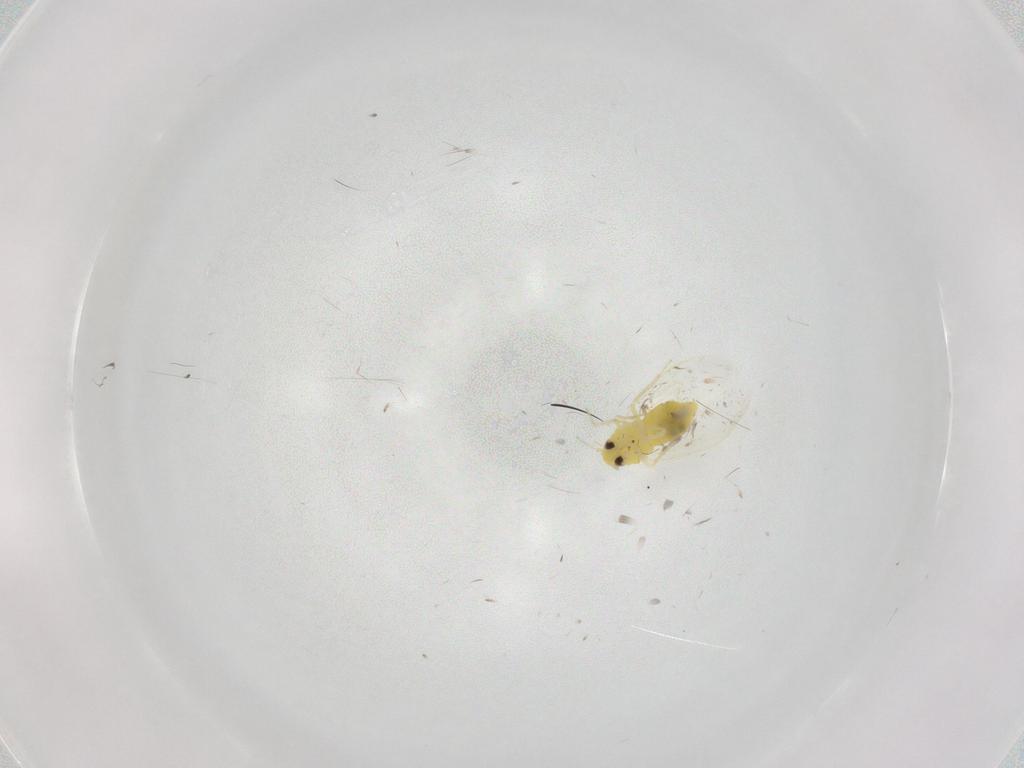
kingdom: Animalia
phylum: Arthropoda
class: Insecta
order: Hemiptera
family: Aleyrodidae
